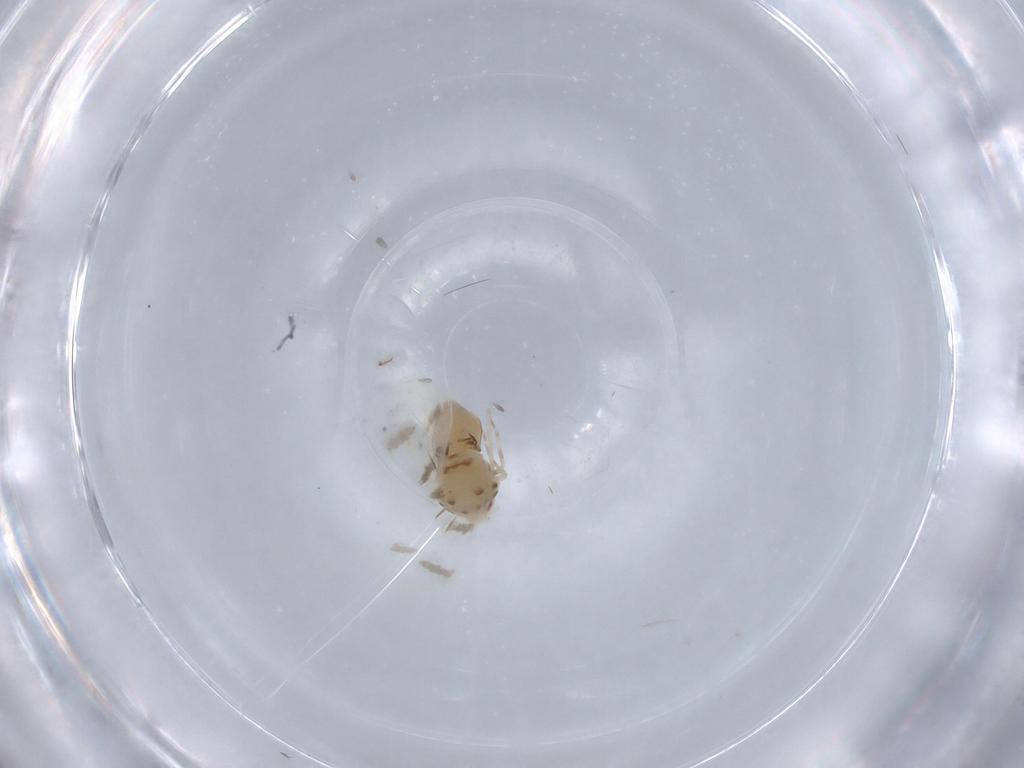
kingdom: Animalia
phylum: Arthropoda
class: Insecta
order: Hemiptera
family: Aleyrodidae
